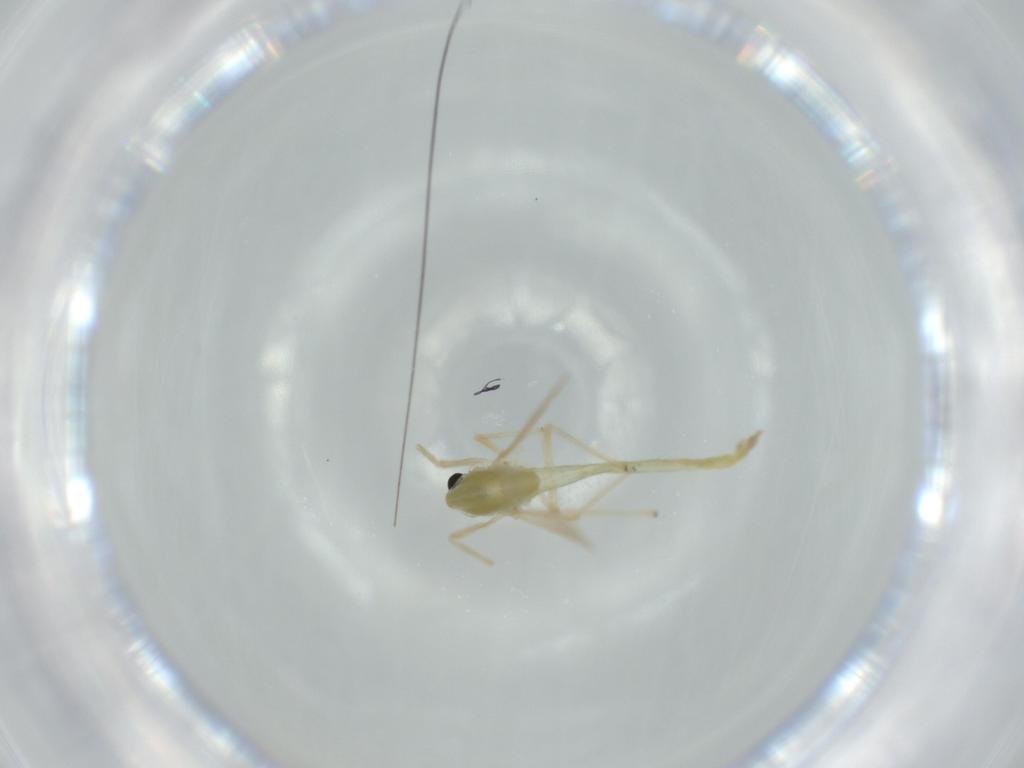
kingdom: Animalia
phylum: Arthropoda
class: Insecta
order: Diptera
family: Chironomidae
